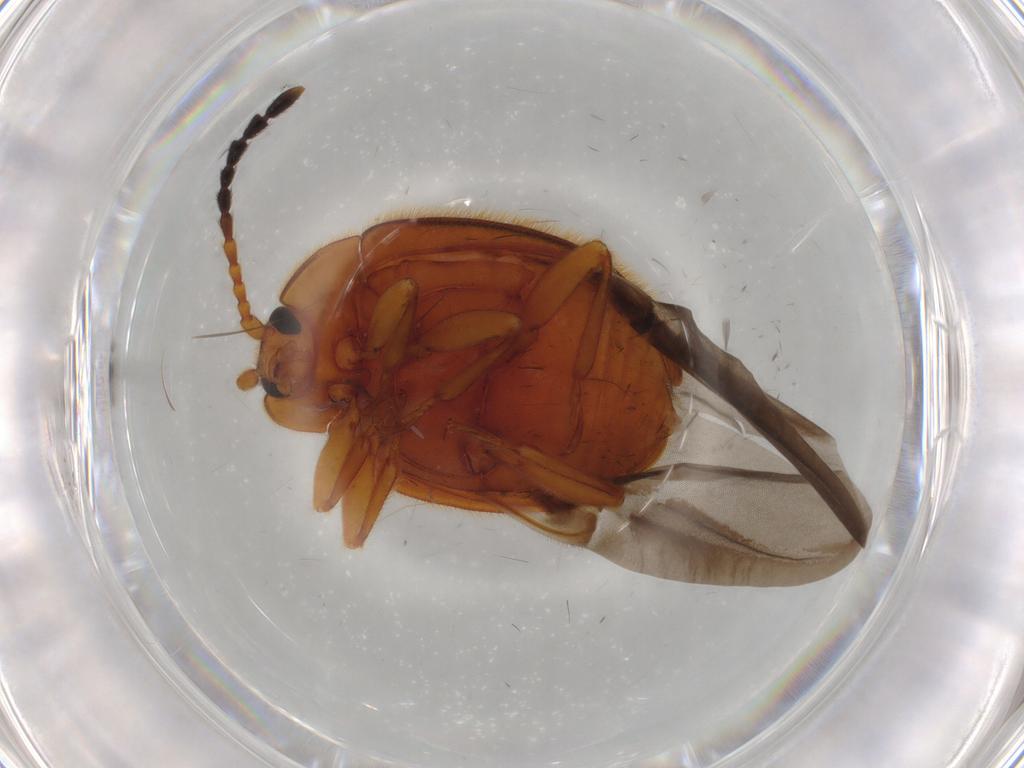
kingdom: Animalia
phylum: Arthropoda
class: Insecta
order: Coleoptera
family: Endomychidae
